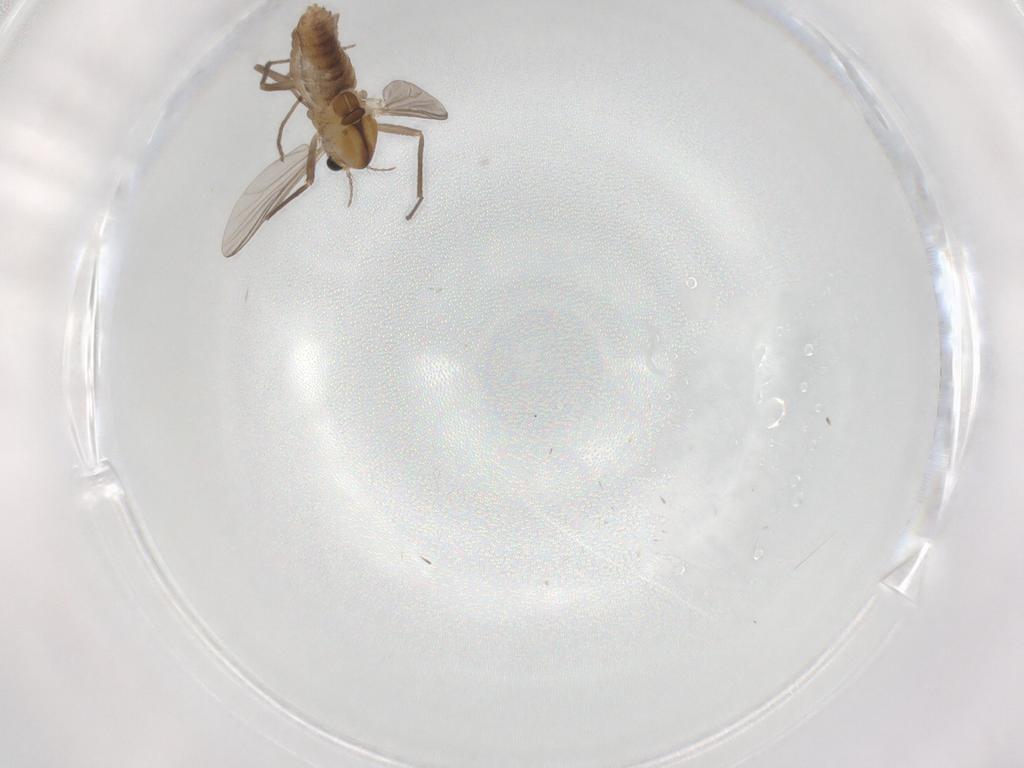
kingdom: Animalia
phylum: Arthropoda
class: Insecta
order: Diptera
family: Chironomidae
